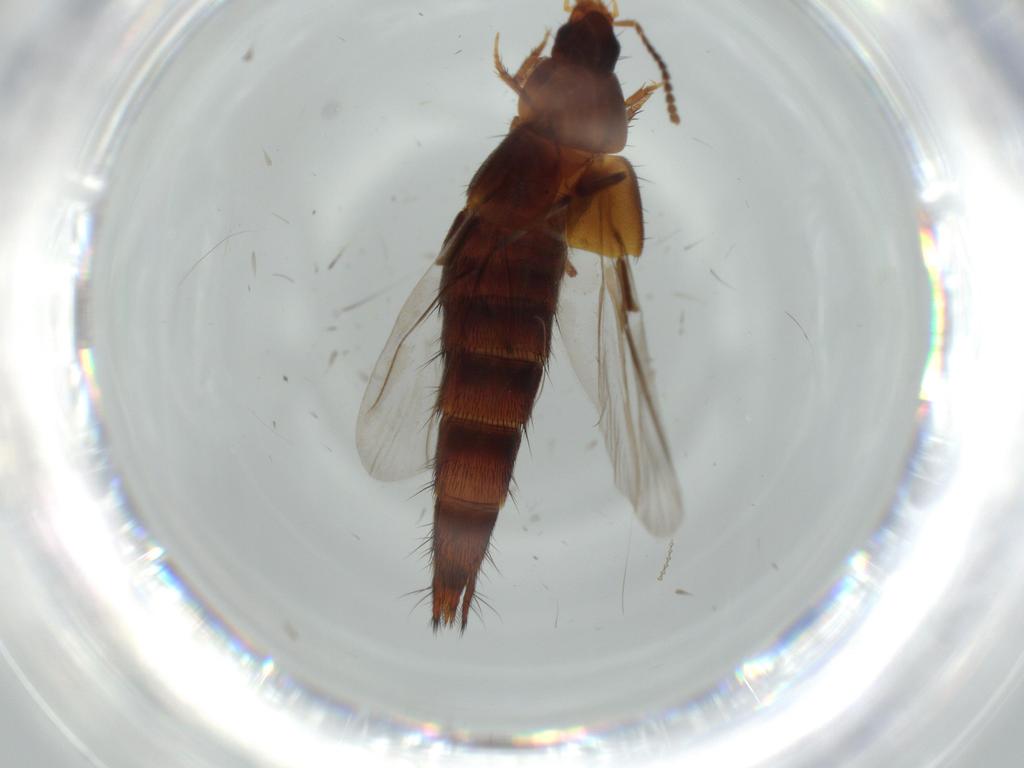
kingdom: Animalia
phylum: Arthropoda
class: Insecta
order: Coleoptera
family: Staphylinidae
